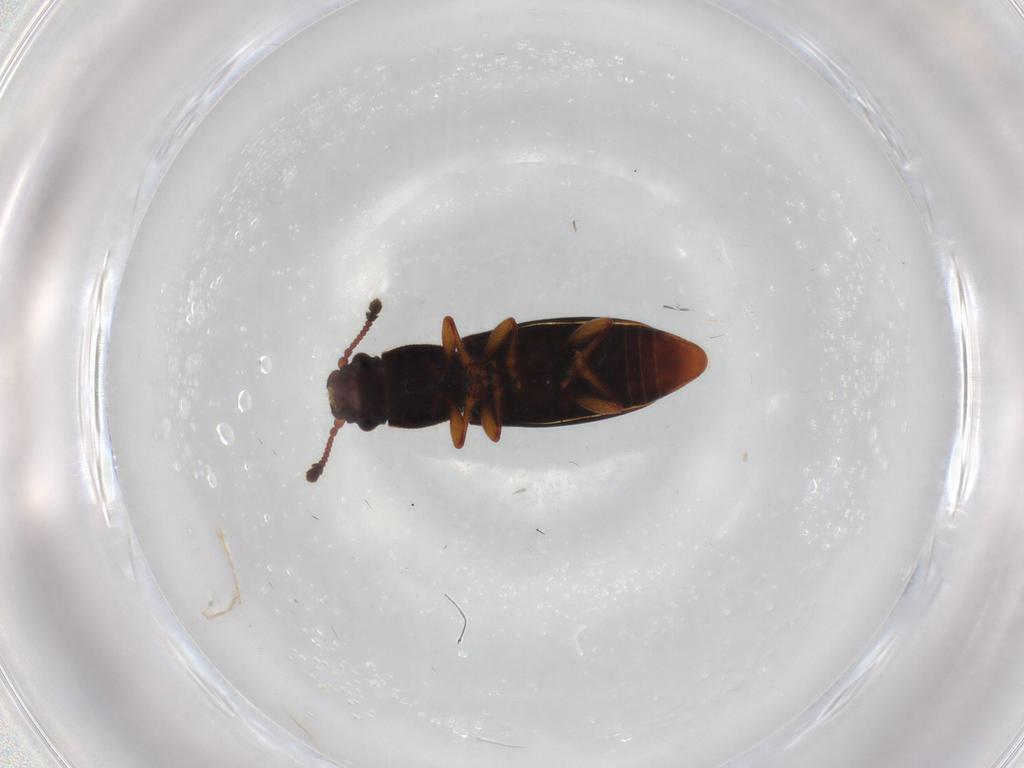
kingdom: Animalia
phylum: Arthropoda
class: Insecta
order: Coleoptera
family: Monotomidae
